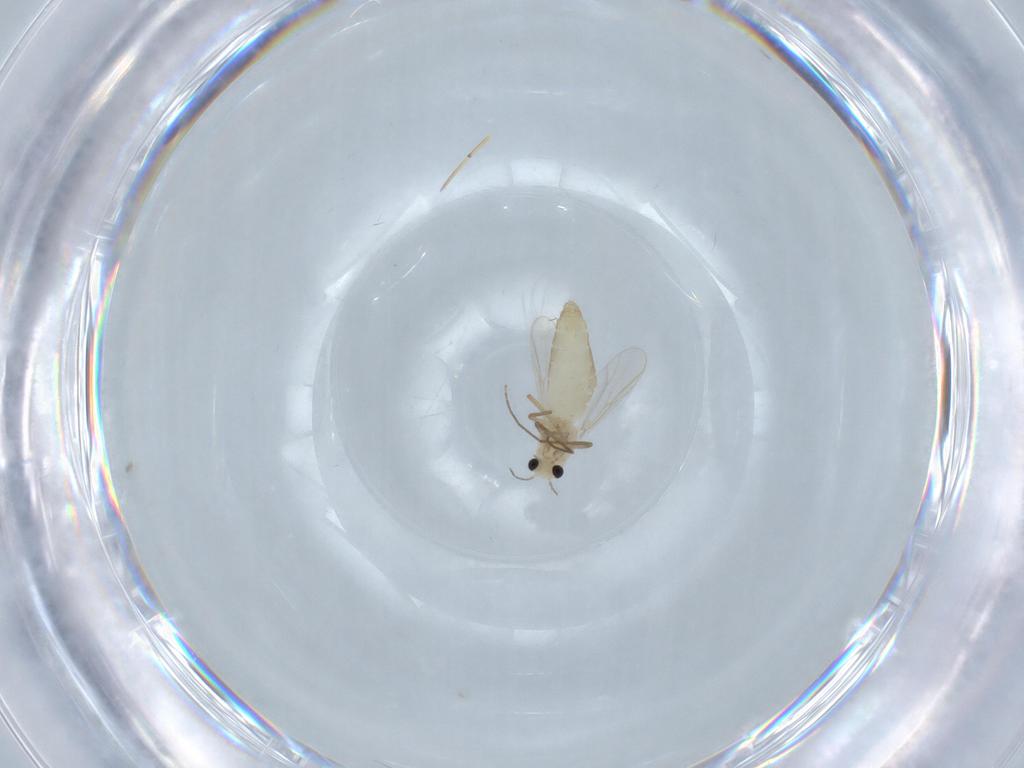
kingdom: Animalia
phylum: Arthropoda
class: Insecta
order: Diptera
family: Chironomidae
